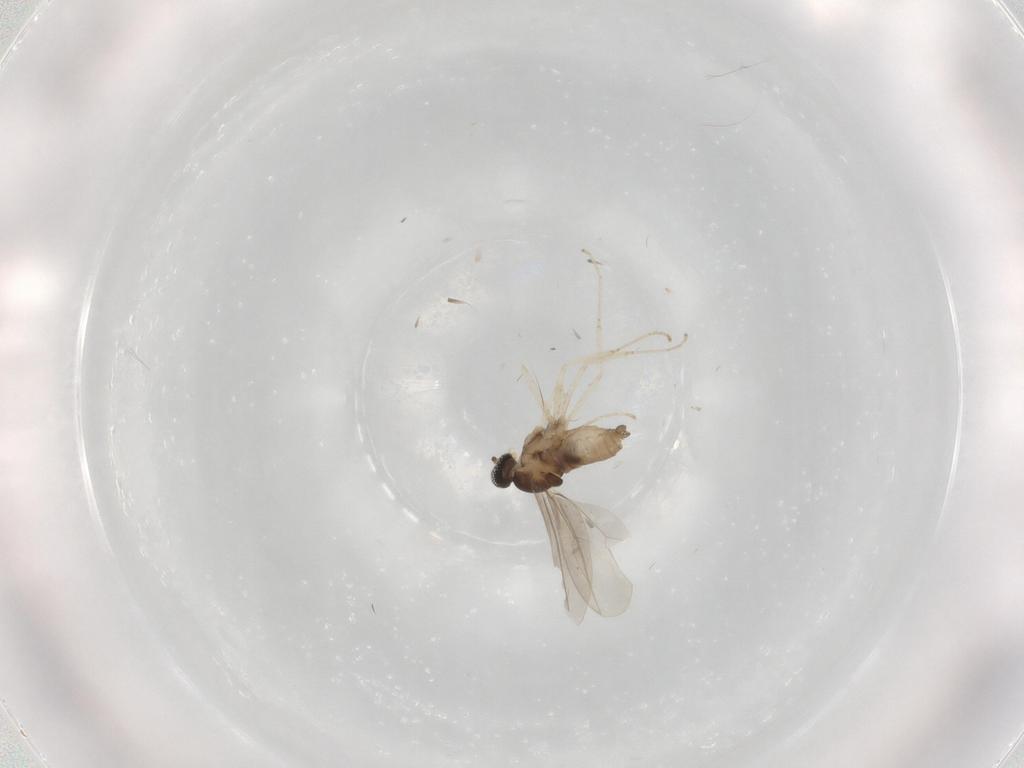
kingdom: Animalia
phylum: Arthropoda
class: Insecta
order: Diptera
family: Cecidomyiidae
